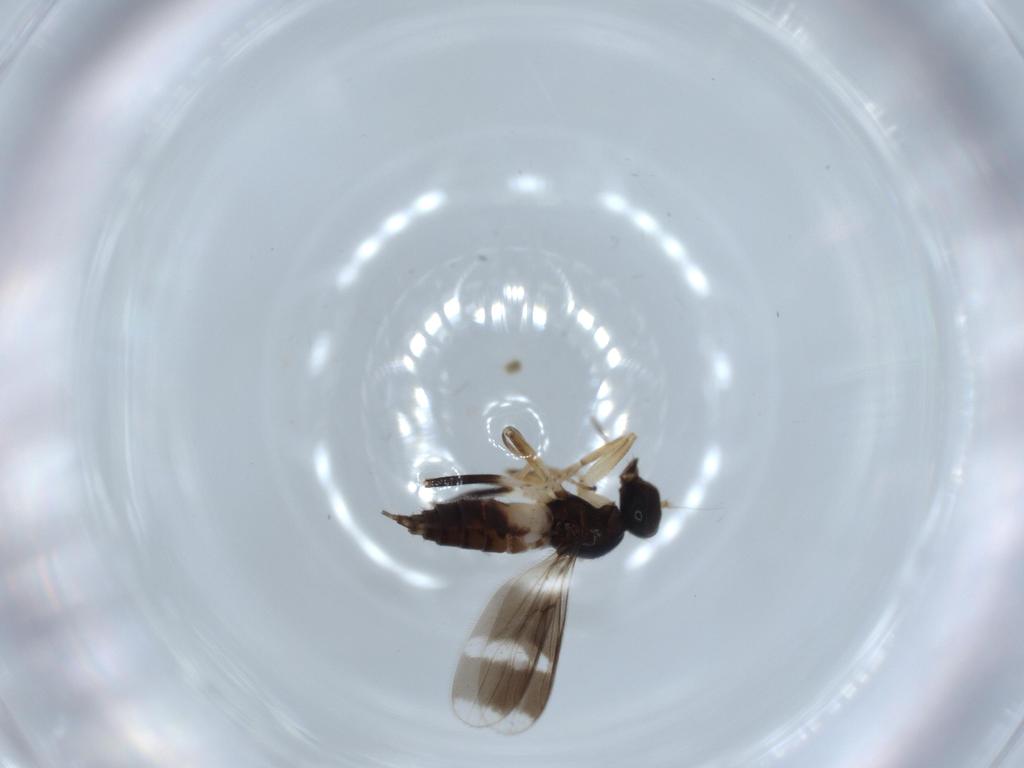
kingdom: Animalia
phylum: Arthropoda
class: Insecta
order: Diptera
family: Hybotidae
